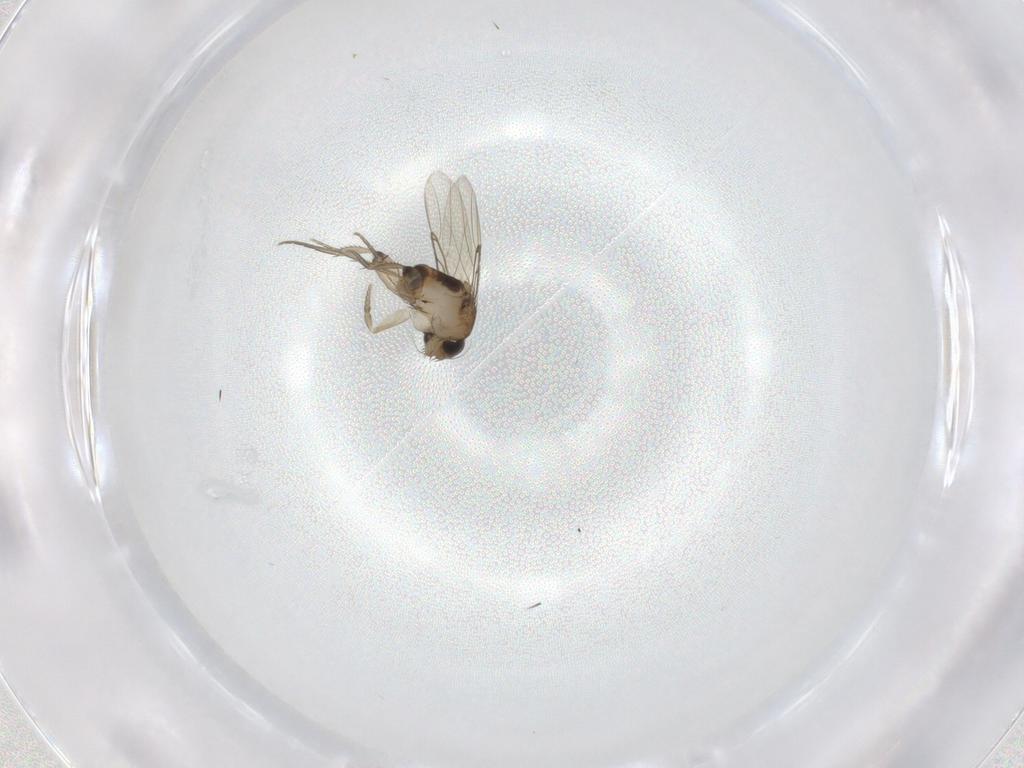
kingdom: Animalia
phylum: Arthropoda
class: Insecta
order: Diptera
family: Phoridae
